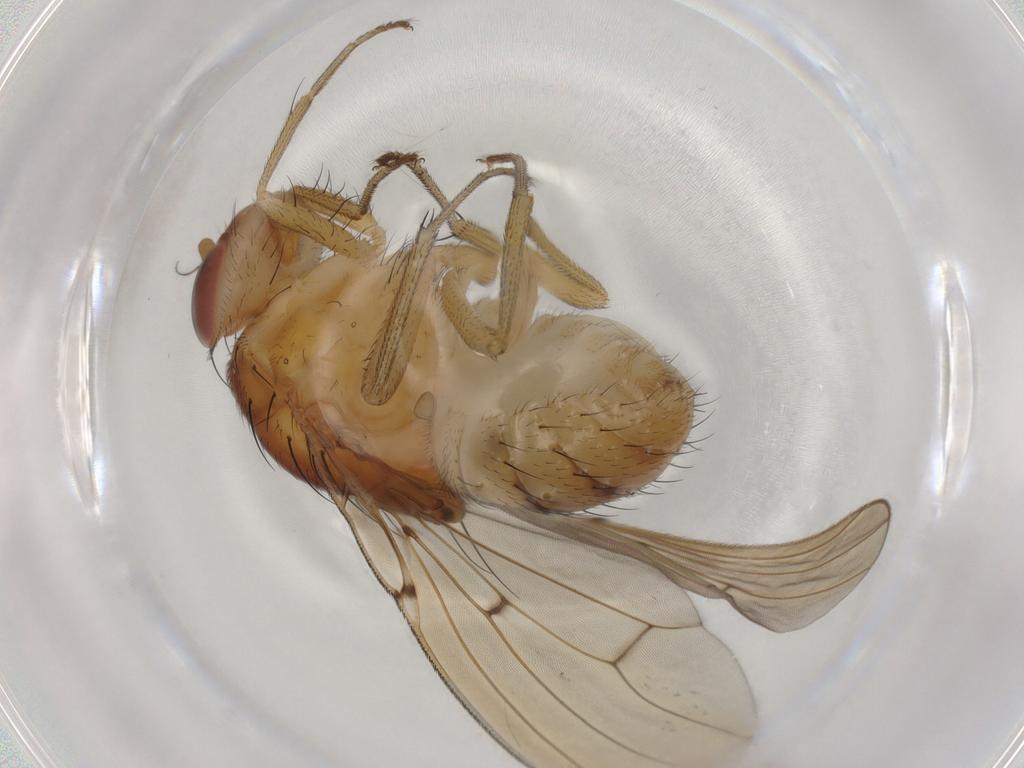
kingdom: Animalia
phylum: Arthropoda
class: Insecta
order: Diptera
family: Lauxaniidae
